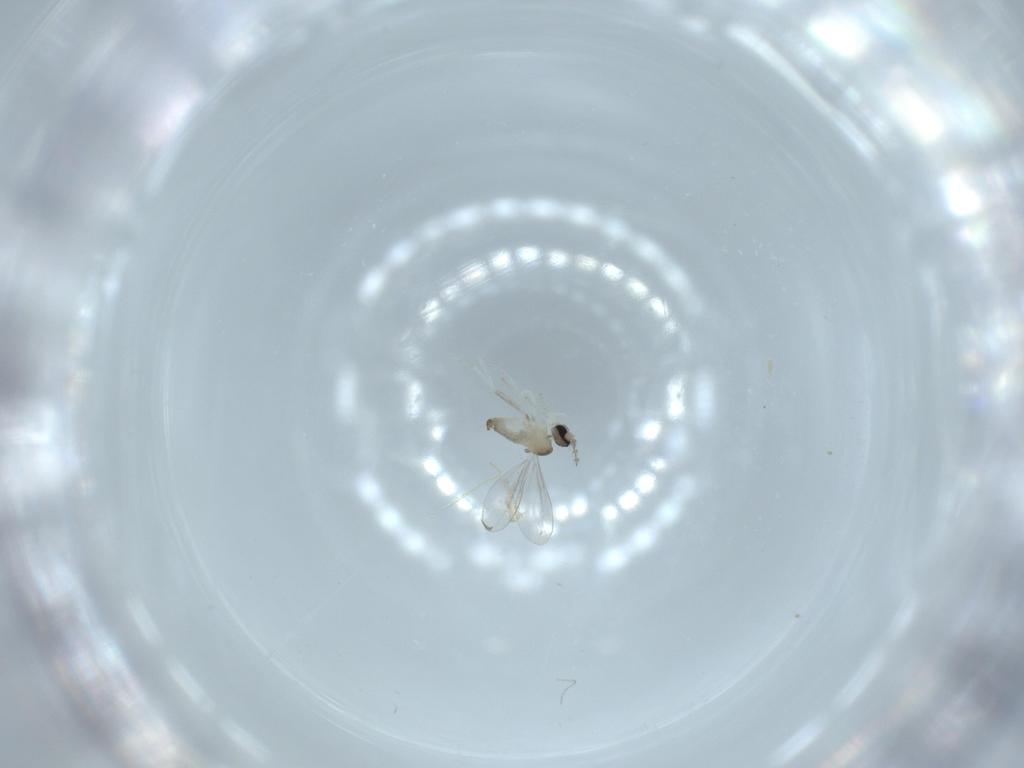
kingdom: Animalia
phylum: Arthropoda
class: Insecta
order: Diptera
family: Cecidomyiidae
